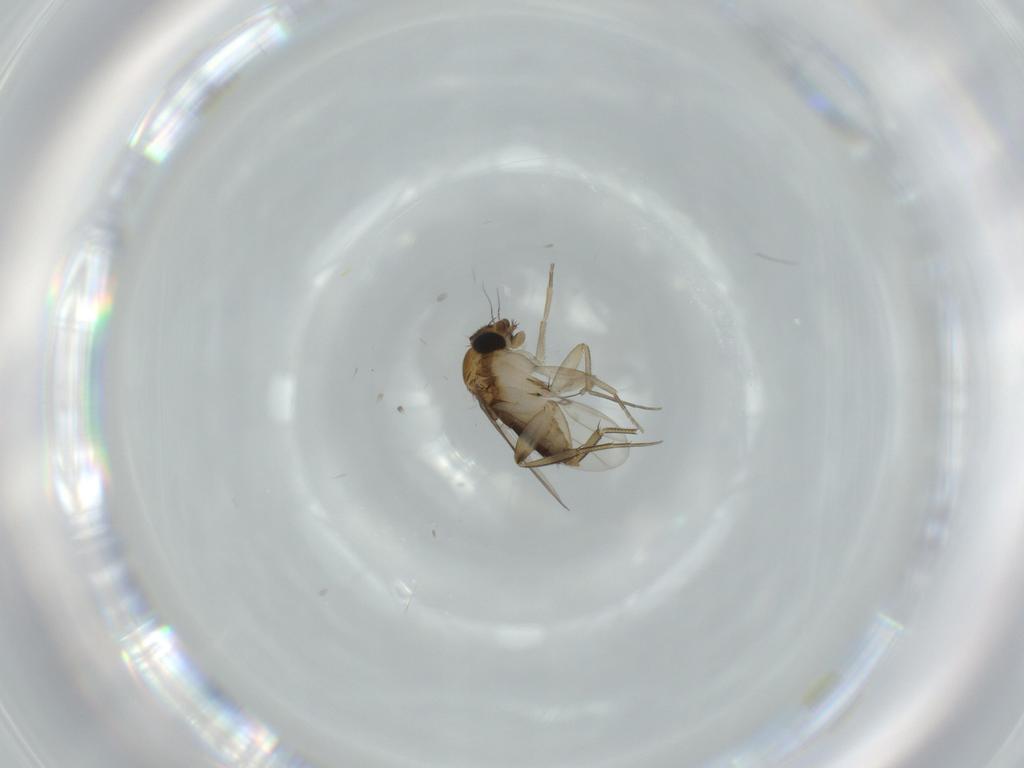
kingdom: Animalia
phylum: Arthropoda
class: Insecta
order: Diptera
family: Phoridae
